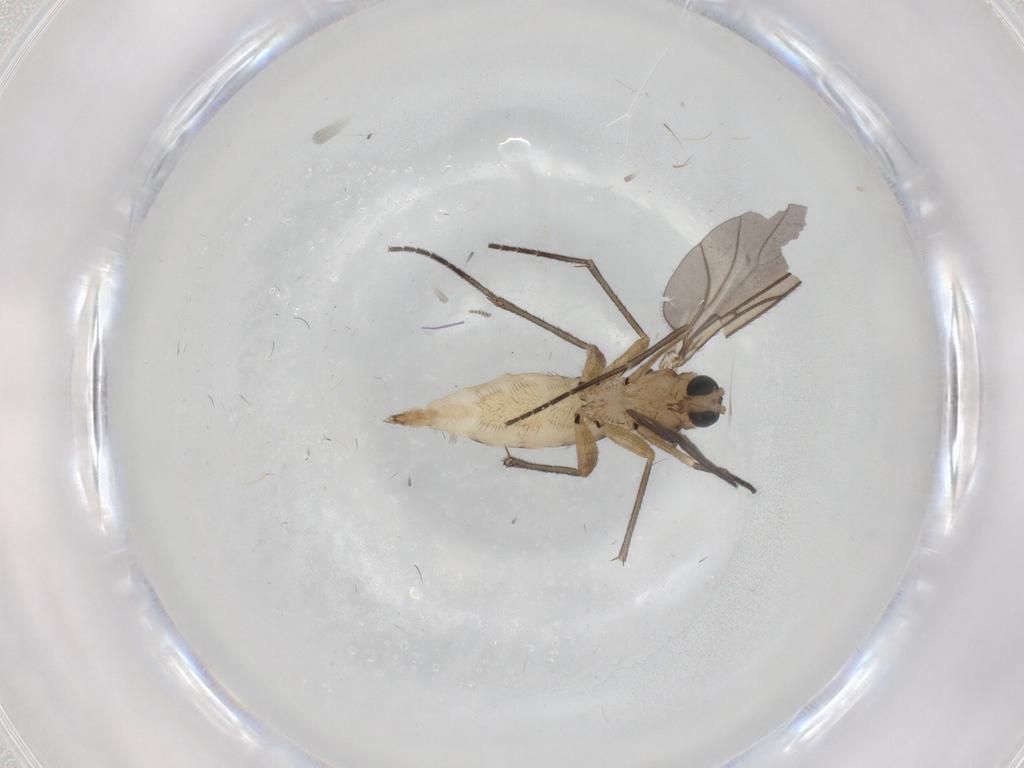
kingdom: Animalia
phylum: Arthropoda
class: Insecta
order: Diptera
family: Sciaridae
